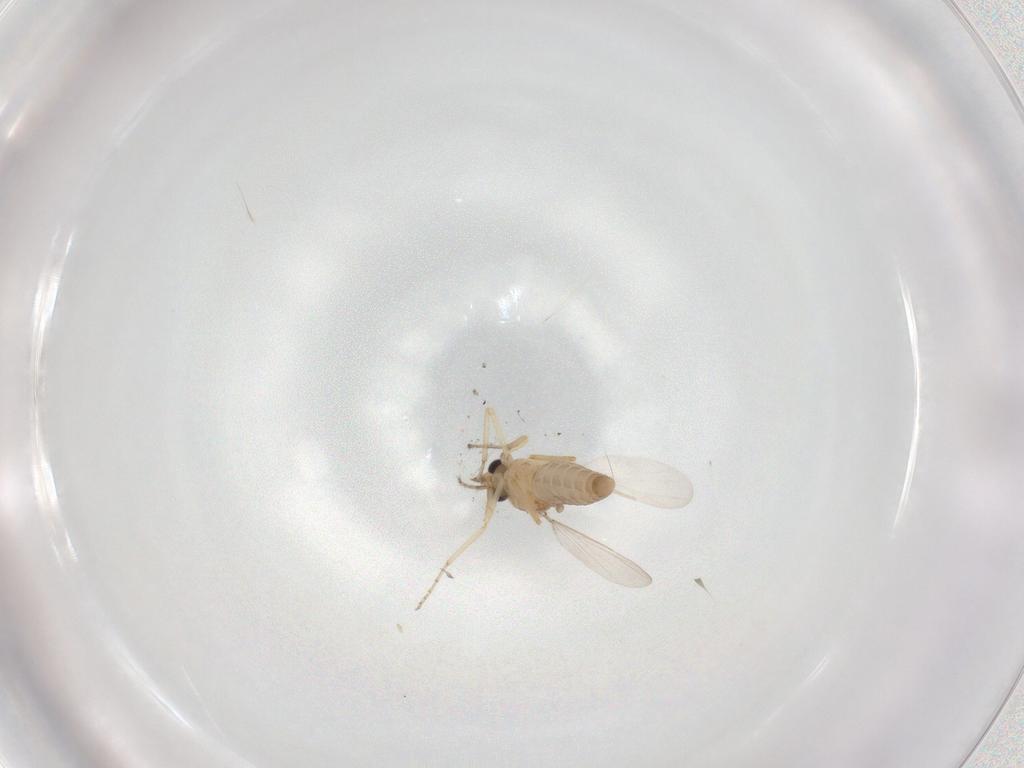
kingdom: Animalia
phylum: Arthropoda
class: Insecta
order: Diptera
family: Ceratopogonidae
